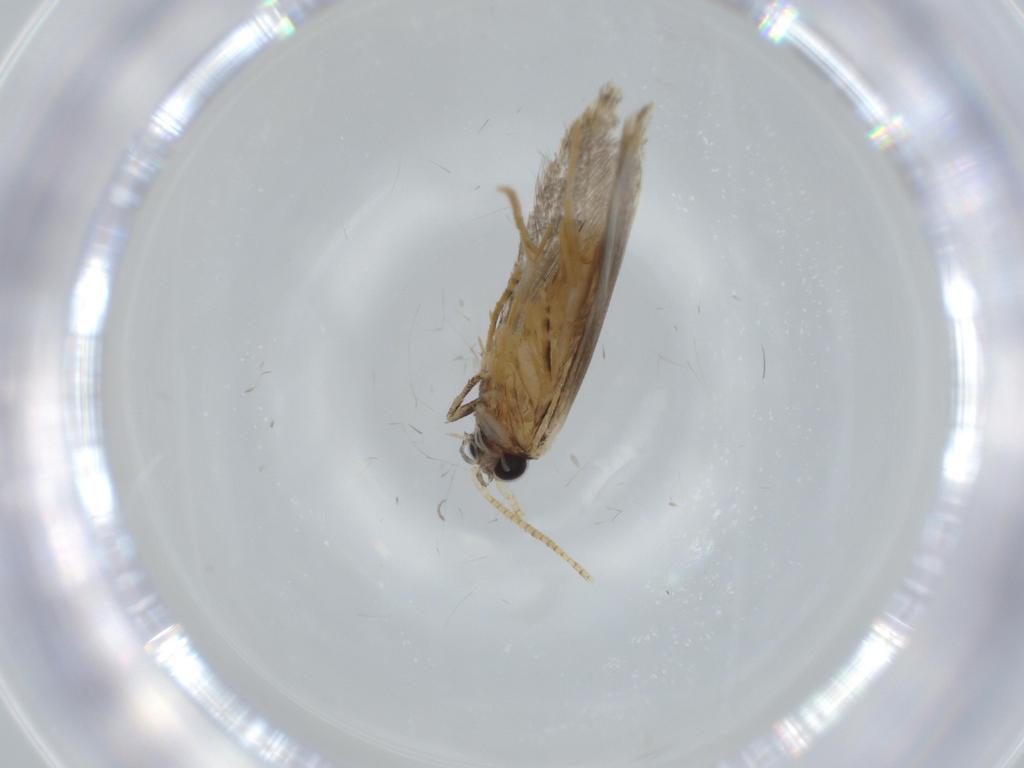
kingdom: Animalia
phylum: Arthropoda
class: Insecta
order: Lepidoptera
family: Tineidae
